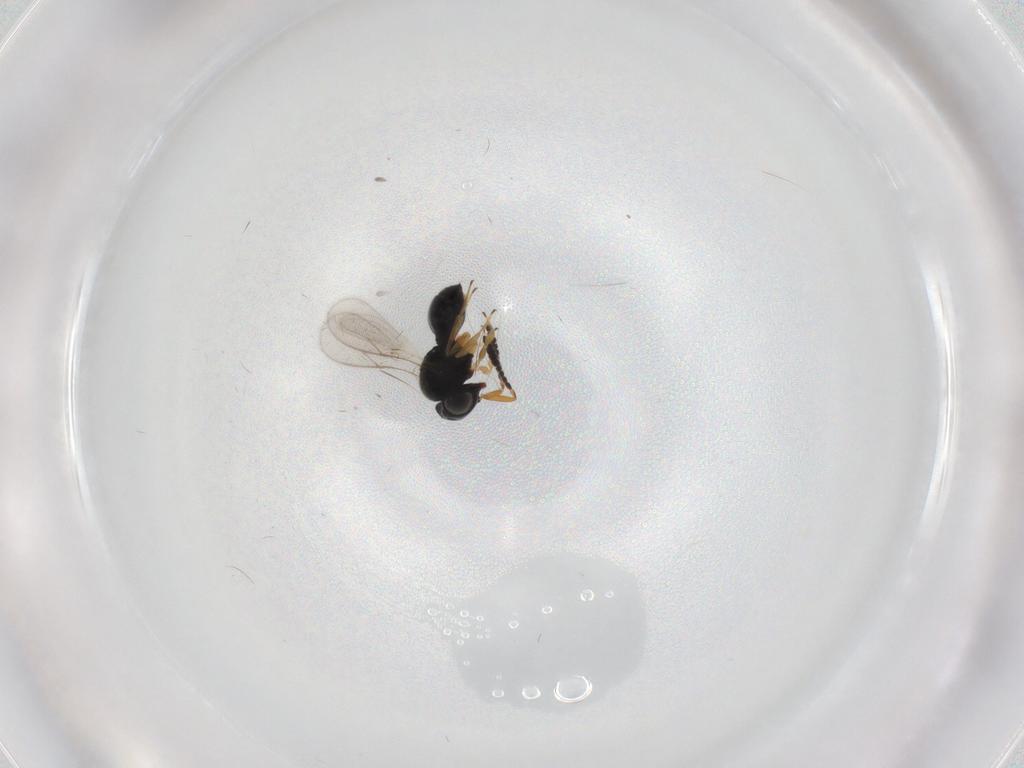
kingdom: Animalia
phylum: Arthropoda
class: Insecta
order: Hymenoptera
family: Scelionidae
